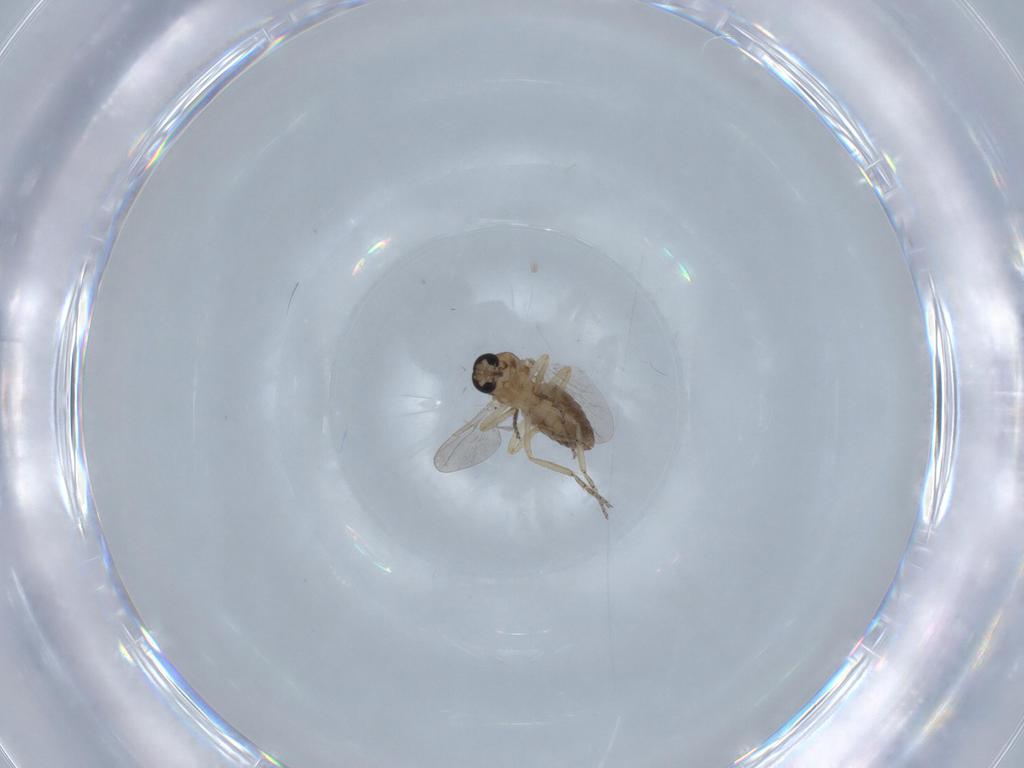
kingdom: Animalia
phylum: Arthropoda
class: Insecta
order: Diptera
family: Ceratopogonidae
